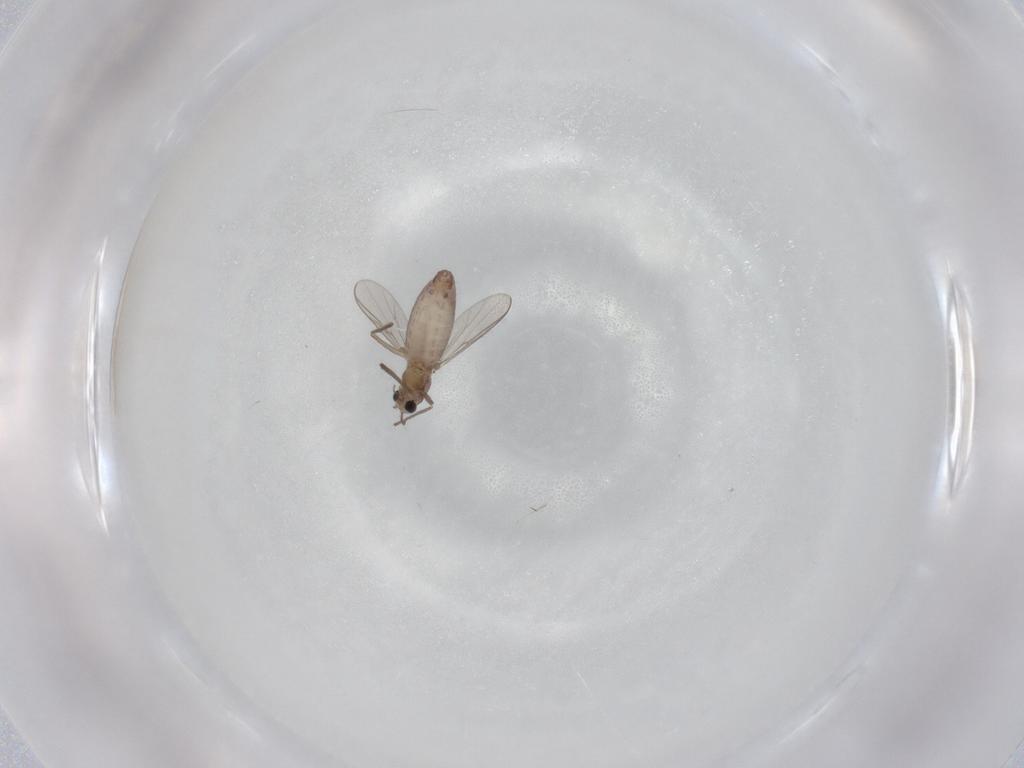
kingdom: Animalia
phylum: Arthropoda
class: Insecta
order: Diptera
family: Chironomidae
